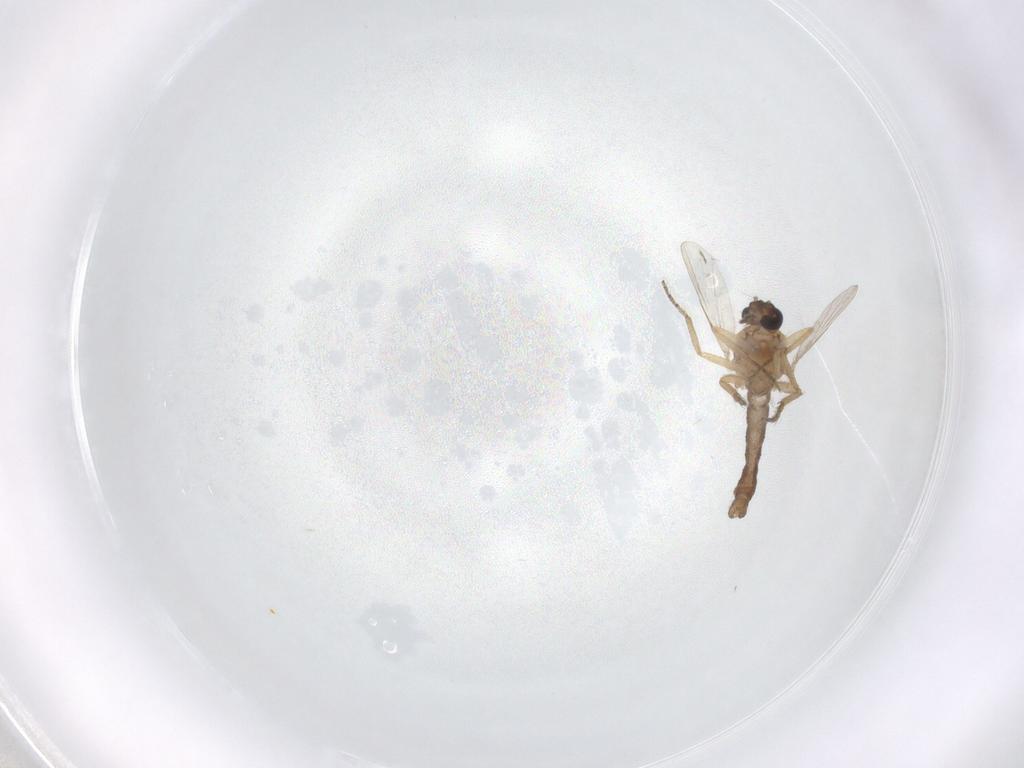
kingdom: Animalia
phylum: Arthropoda
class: Insecta
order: Diptera
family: Ceratopogonidae
